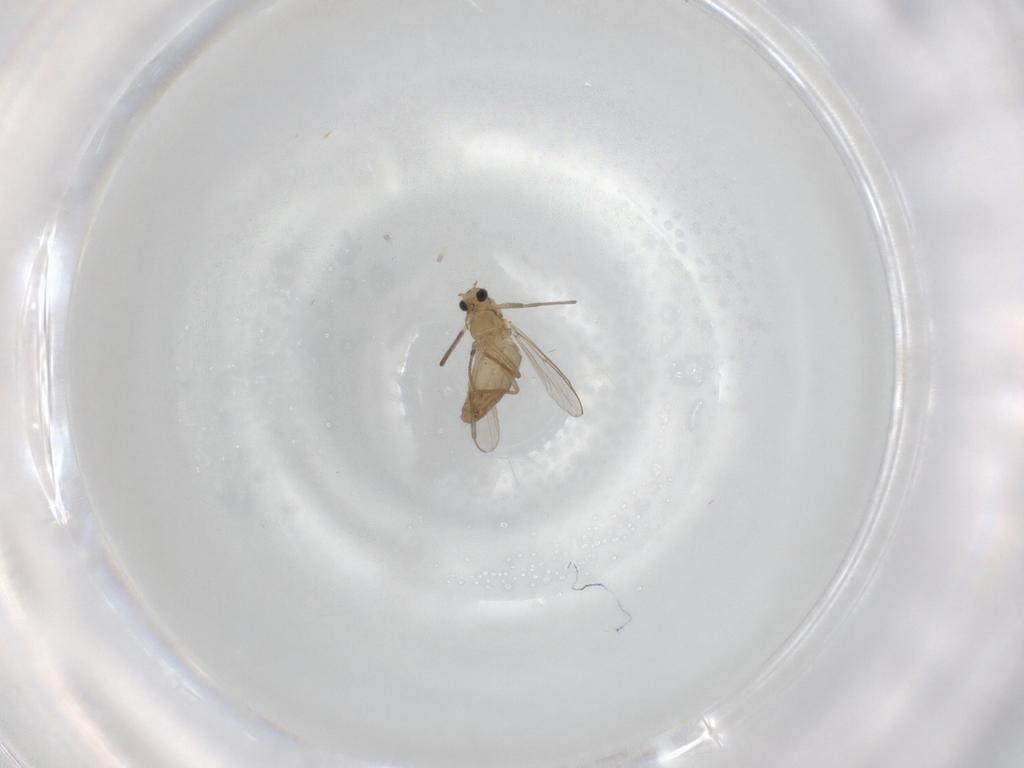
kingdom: Animalia
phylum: Arthropoda
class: Insecta
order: Diptera
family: Chironomidae
